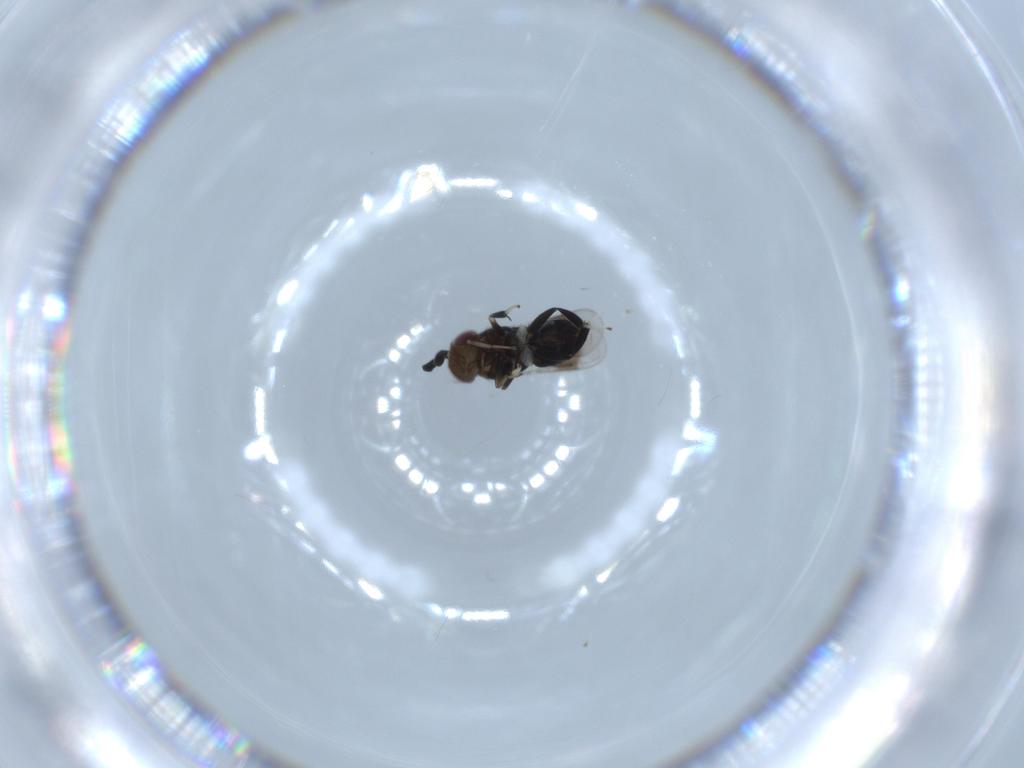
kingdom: Animalia
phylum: Arthropoda
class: Insecta
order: Hymenoptera
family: Aphelinidae
